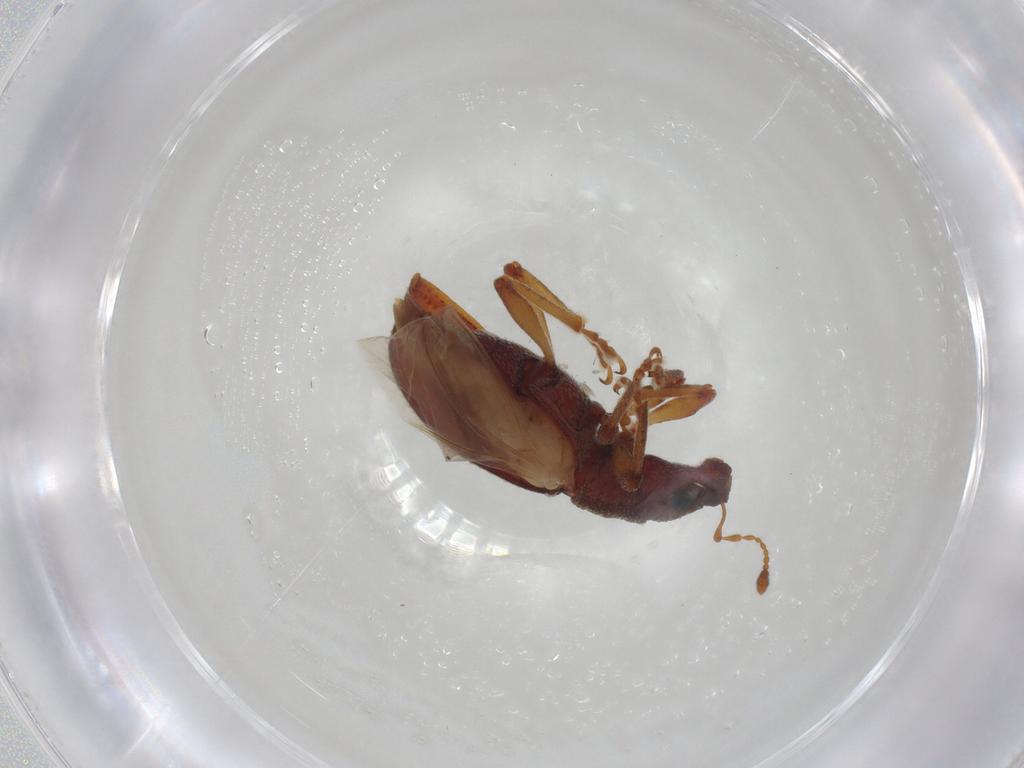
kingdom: Animalia
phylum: Arthropoda
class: Insecta
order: Coleoptera
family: Curculionidae
